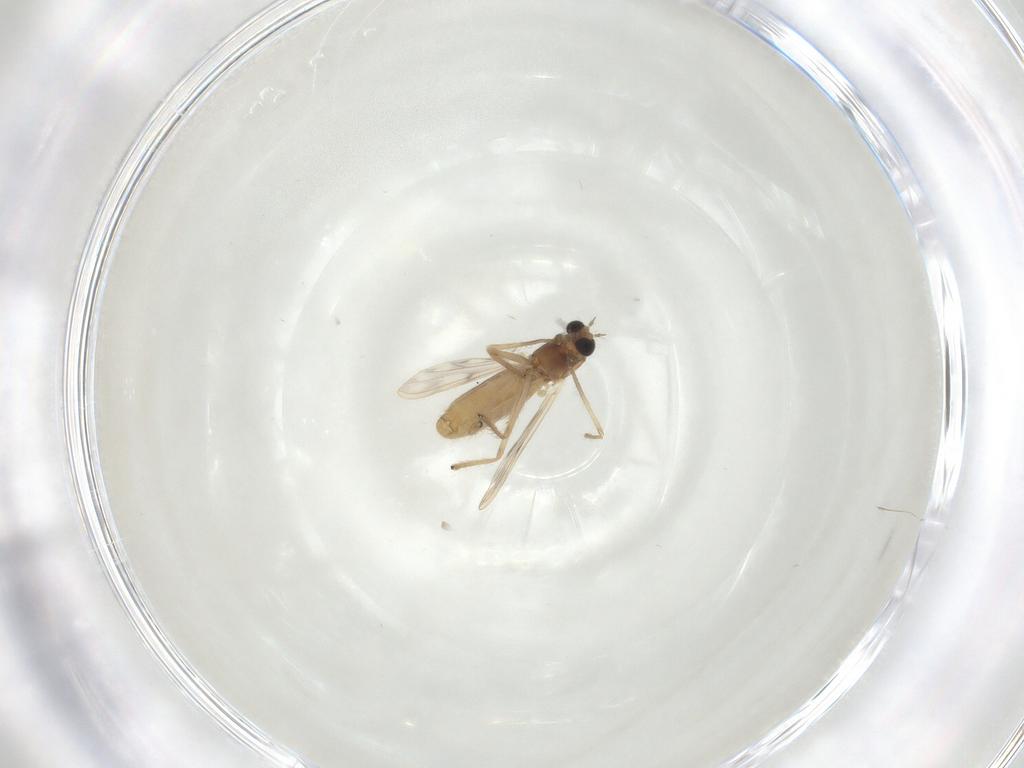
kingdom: Animalia
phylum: Arthropoda
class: Insecta
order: Diptera
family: Chironomidae
